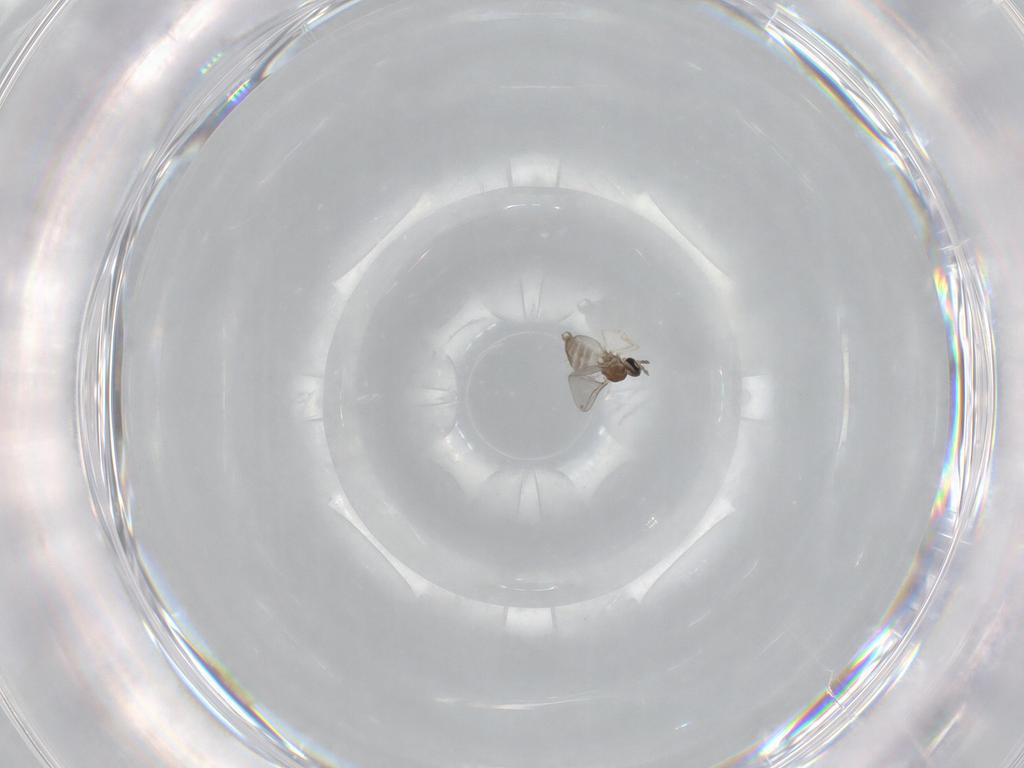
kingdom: Animalia
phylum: Arthropoda
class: Insecta
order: Diptera
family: Cecidomyiidae
